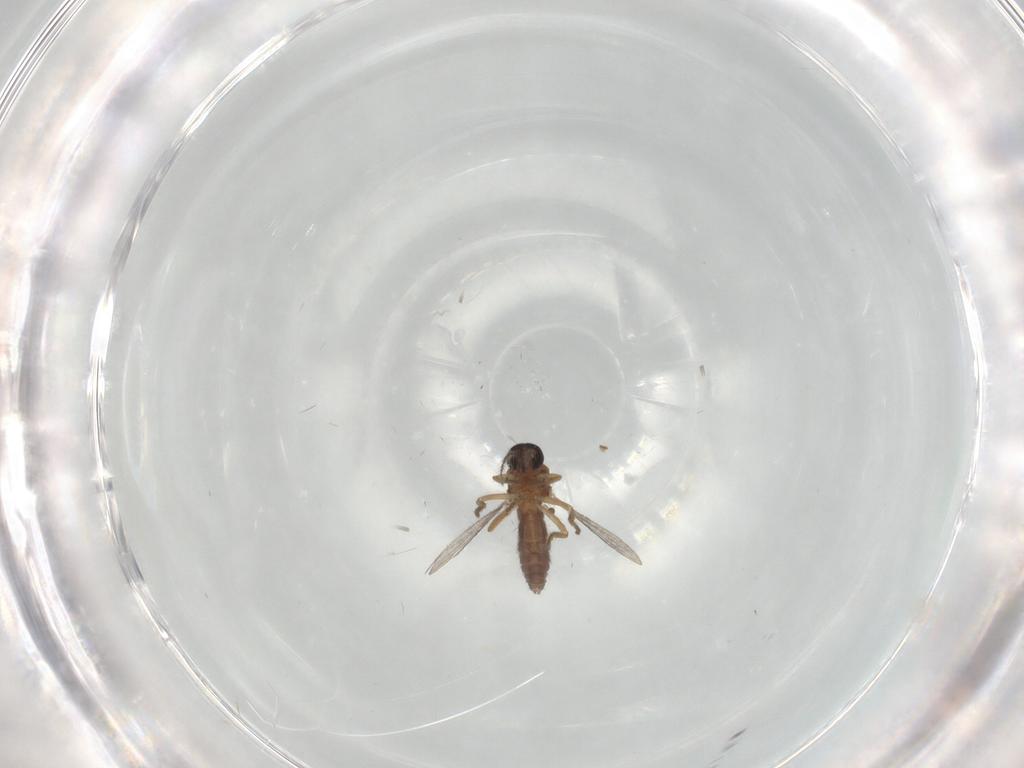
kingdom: Animalia
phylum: Arthropoda
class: Insecta
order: Diptera
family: Ceratopogonidae
